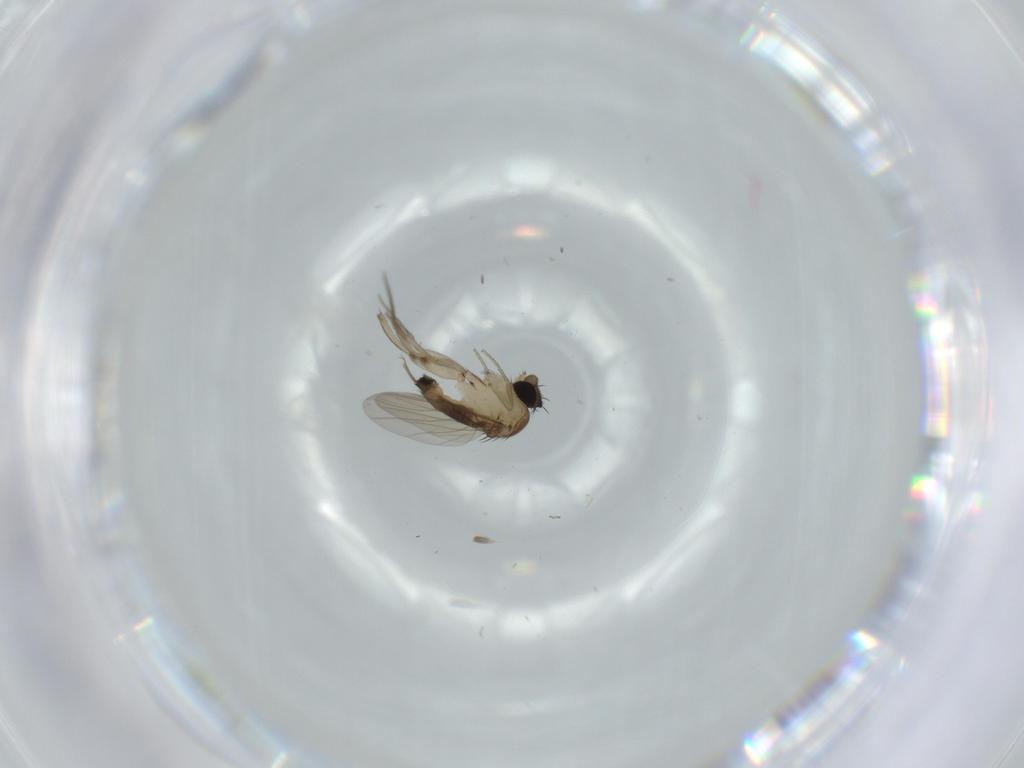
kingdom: Animalia
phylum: Arthropoda
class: Insecta
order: Diptera
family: Phoridae
